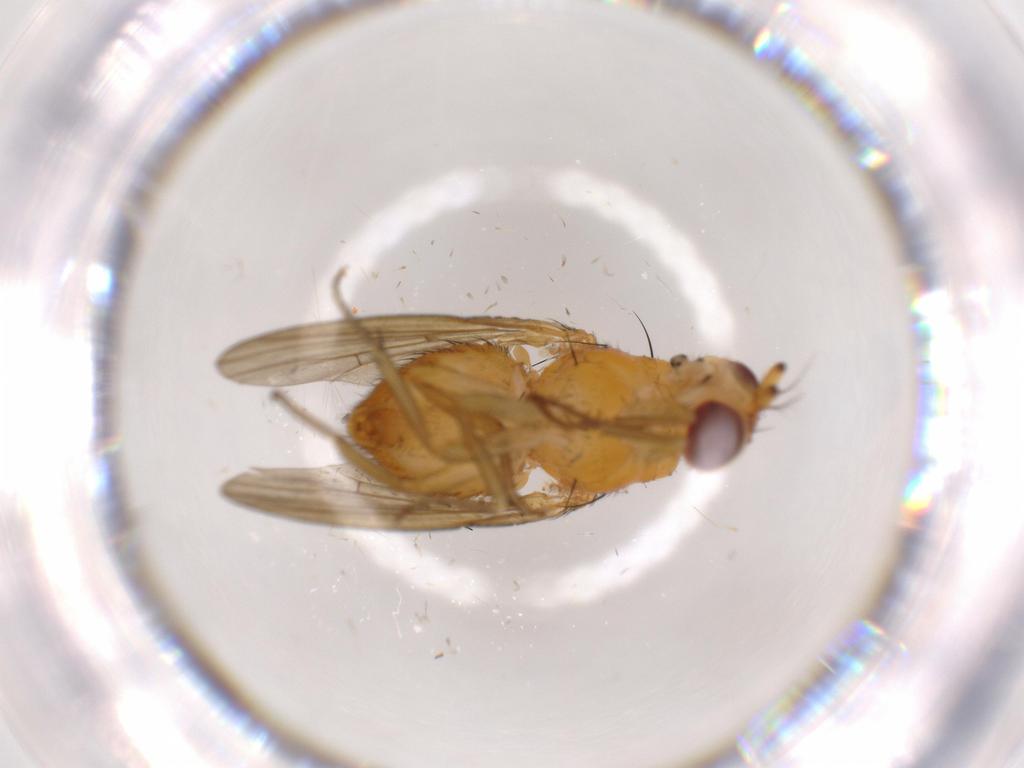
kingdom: Animalia
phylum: Arthropoda
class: Insecta
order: Diptera
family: Lauxaniidae
